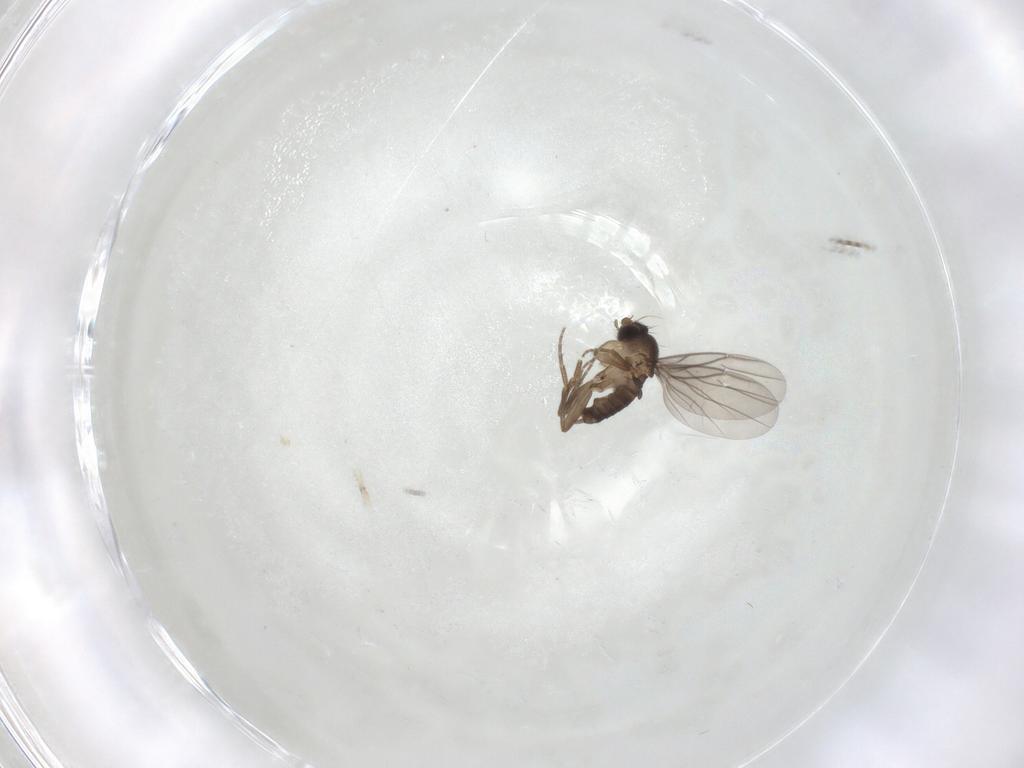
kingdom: Animalia
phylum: Arthropoda
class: Insecta
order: Diptera
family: Phoridae
